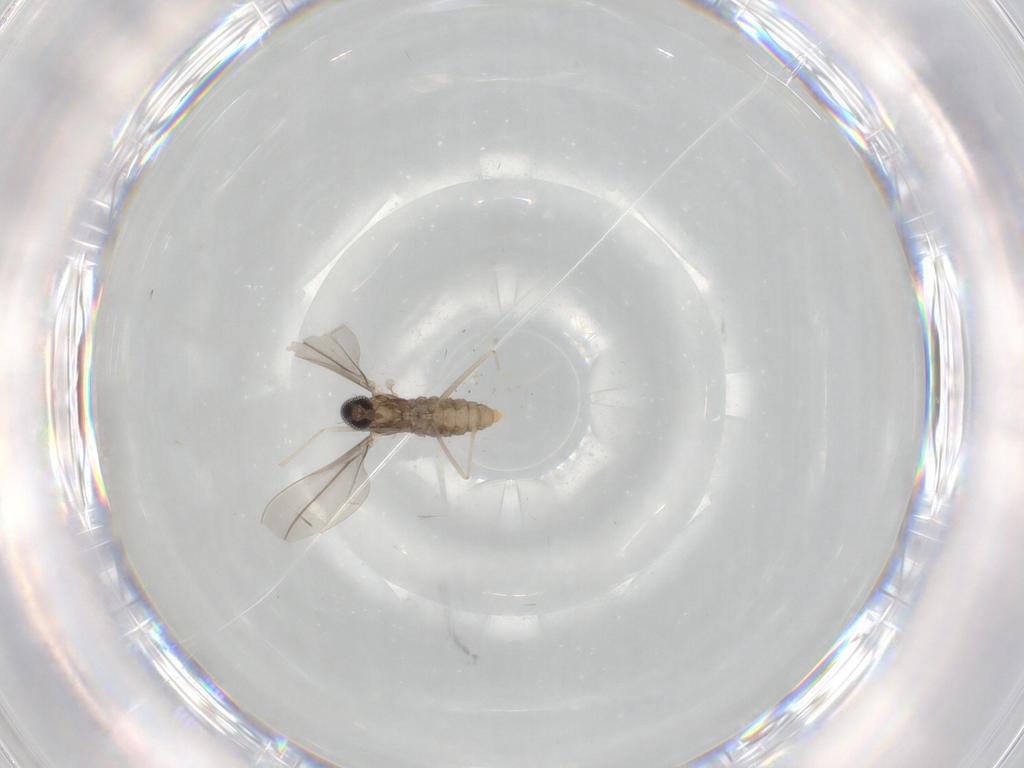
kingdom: Animalia
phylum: Arthropoda
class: Insecta
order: Diptera
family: Cecidomyiidae
